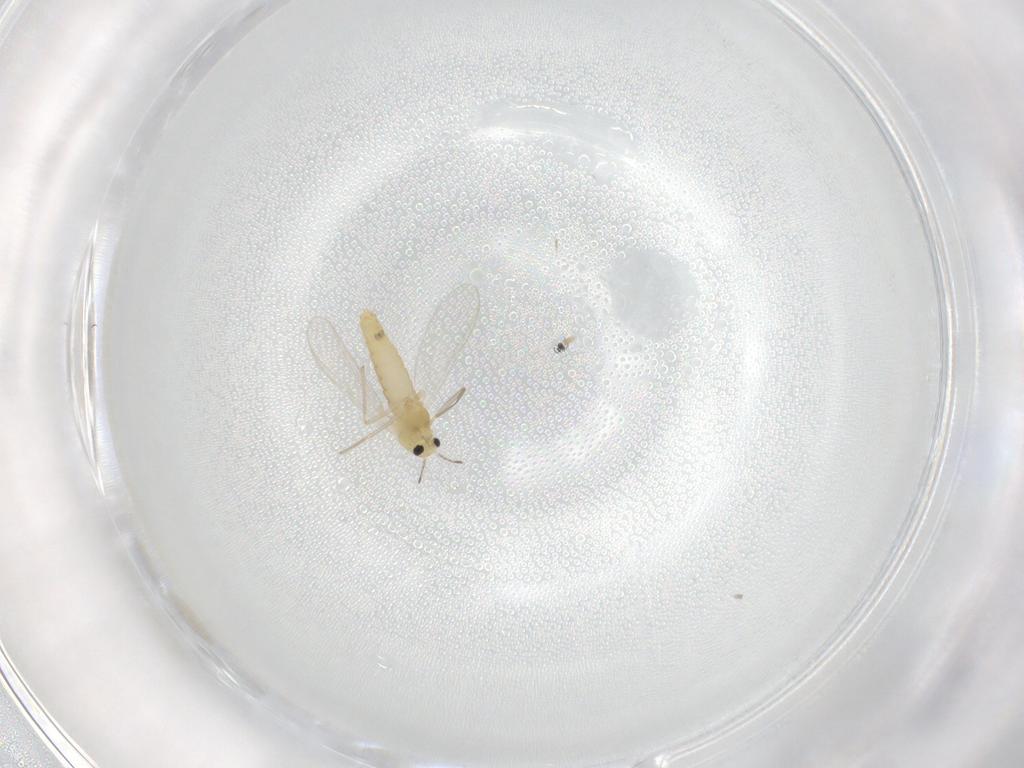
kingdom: Animalia
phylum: Arthropoda
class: Insecta
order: Diptera
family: Chironomidae
